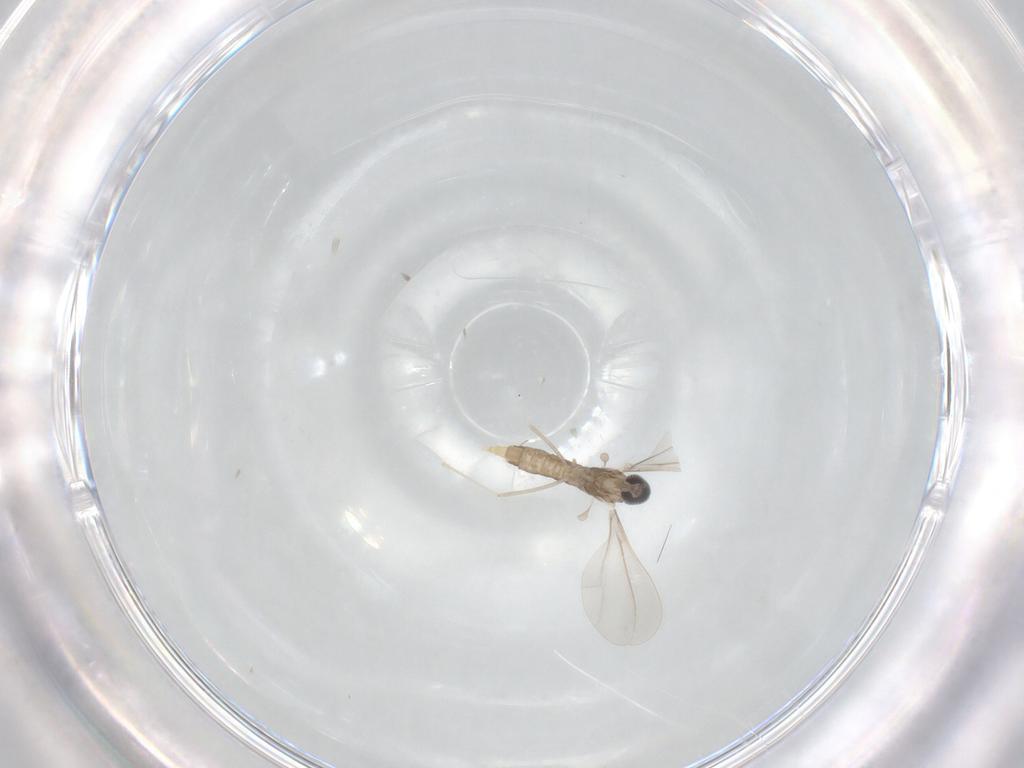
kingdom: Animalia
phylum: Arthropoda
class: Insecta
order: Diptera
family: Cecidomyiidae
